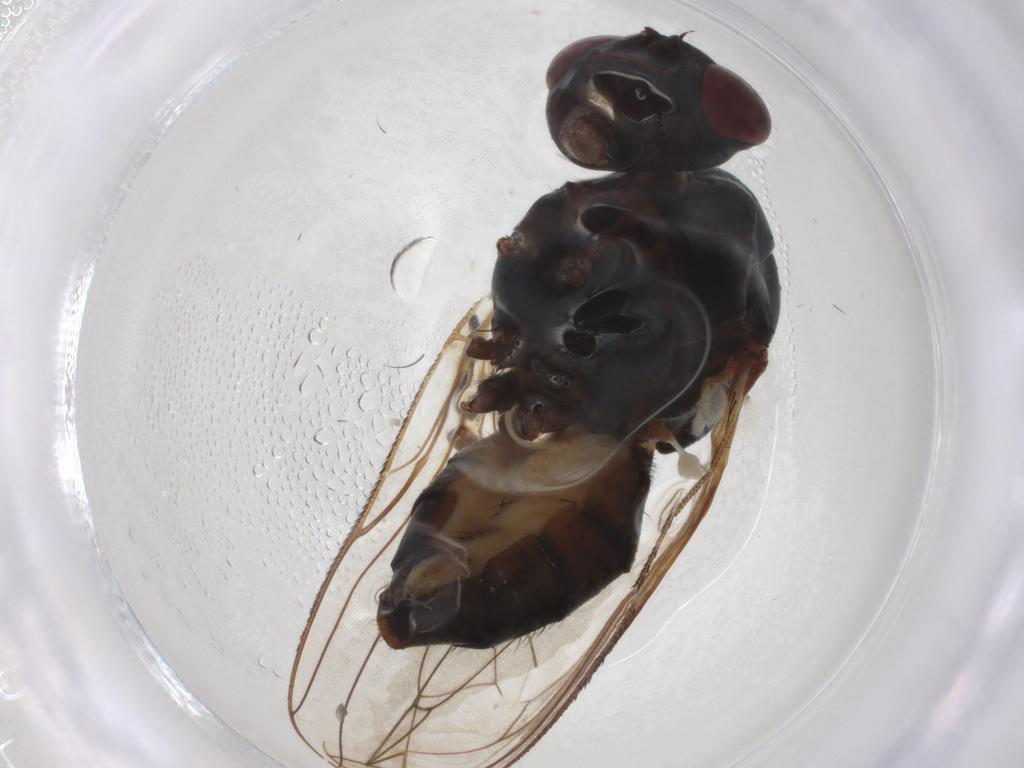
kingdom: Animalia
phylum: Arthropoda
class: Insecta
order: Diptera
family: Anthomyiidae
